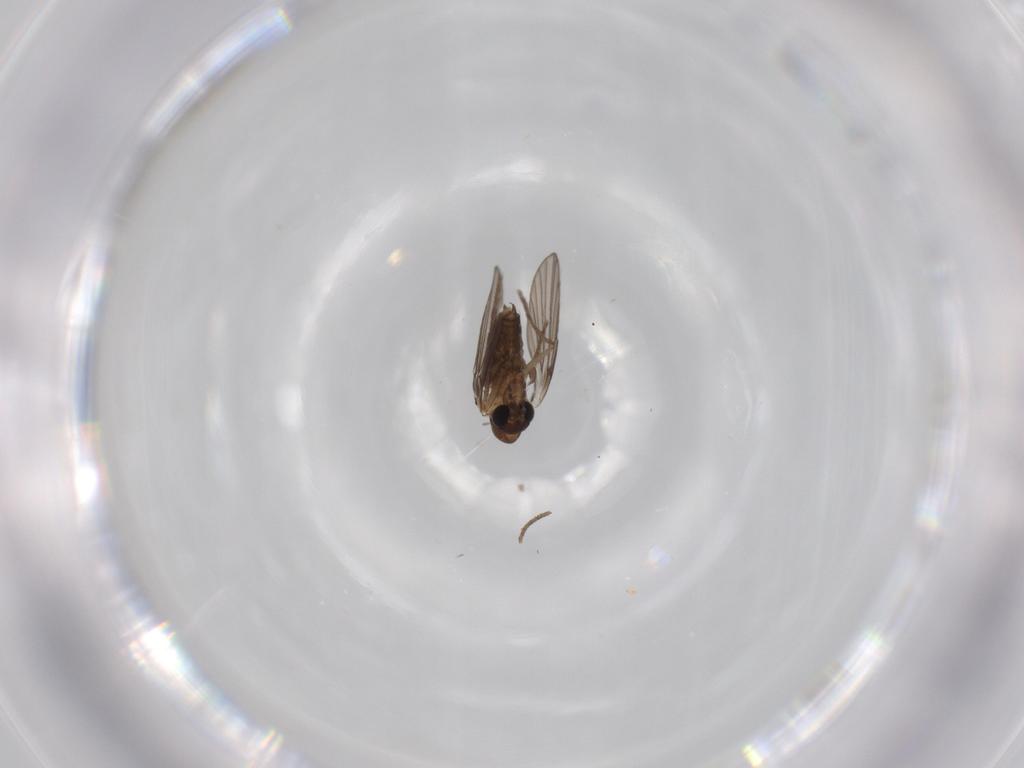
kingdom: Animalia
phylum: Arthropoda
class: Insecta
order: Diptera
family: Psychodidae
